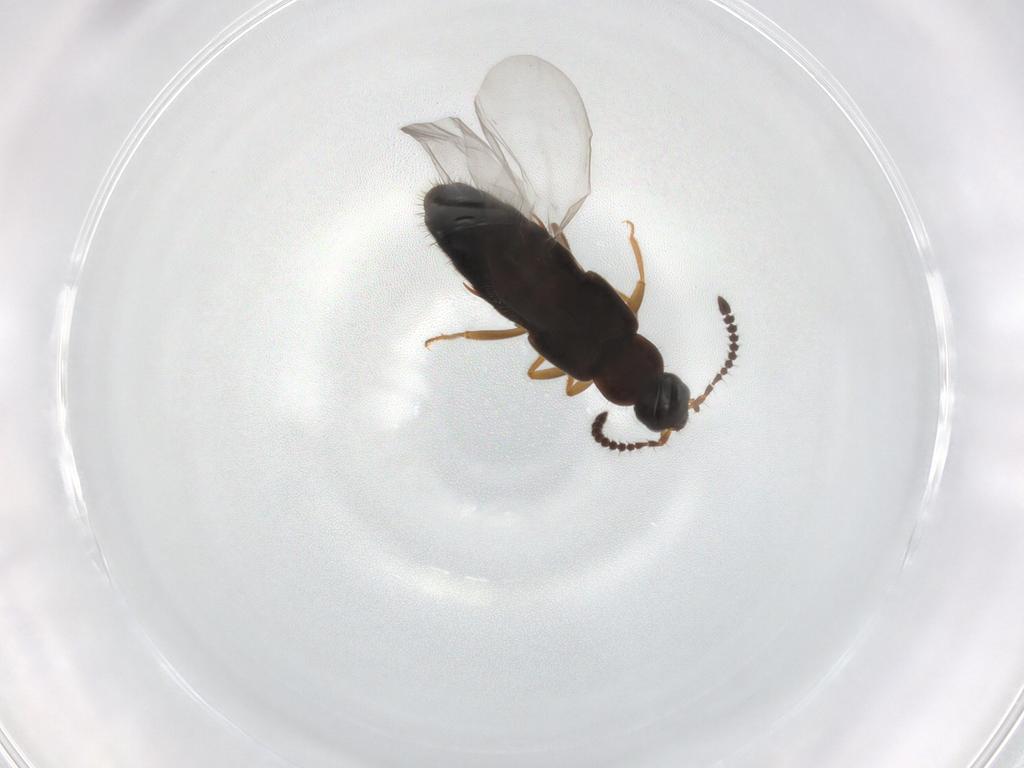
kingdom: Animalia
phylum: Arthropoda
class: Insecta
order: Coleoptera
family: Staphylinidae
